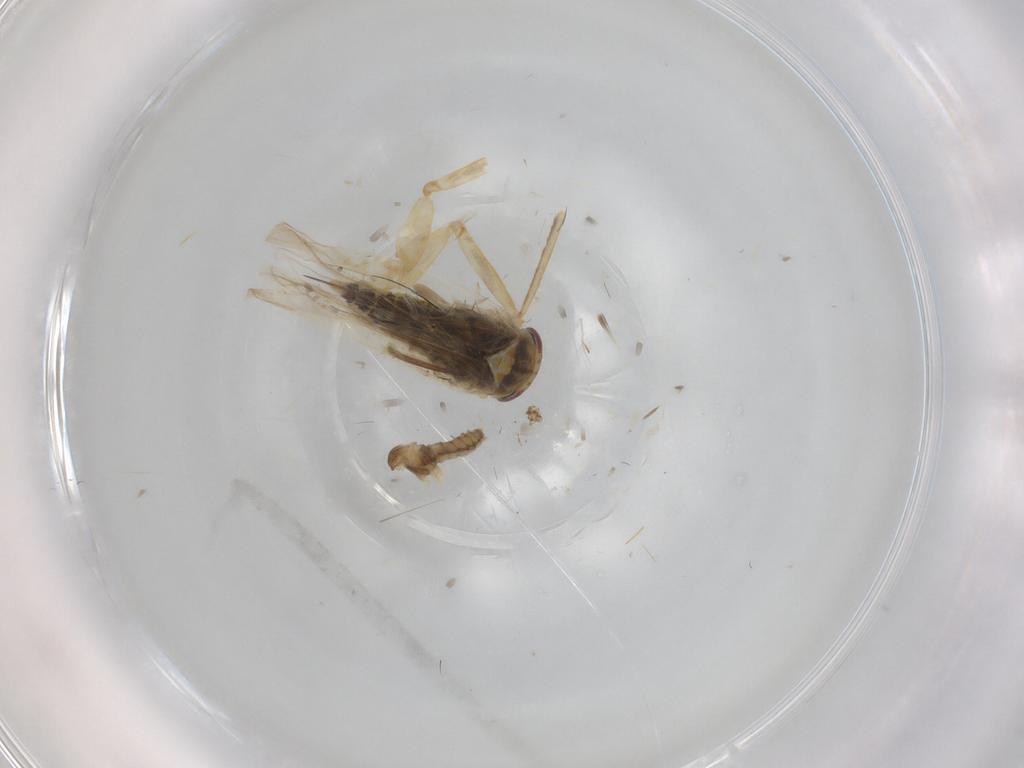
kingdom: Animalia
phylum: Arthropoda
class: Insecta
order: Hemiptera
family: Cicadellidae
